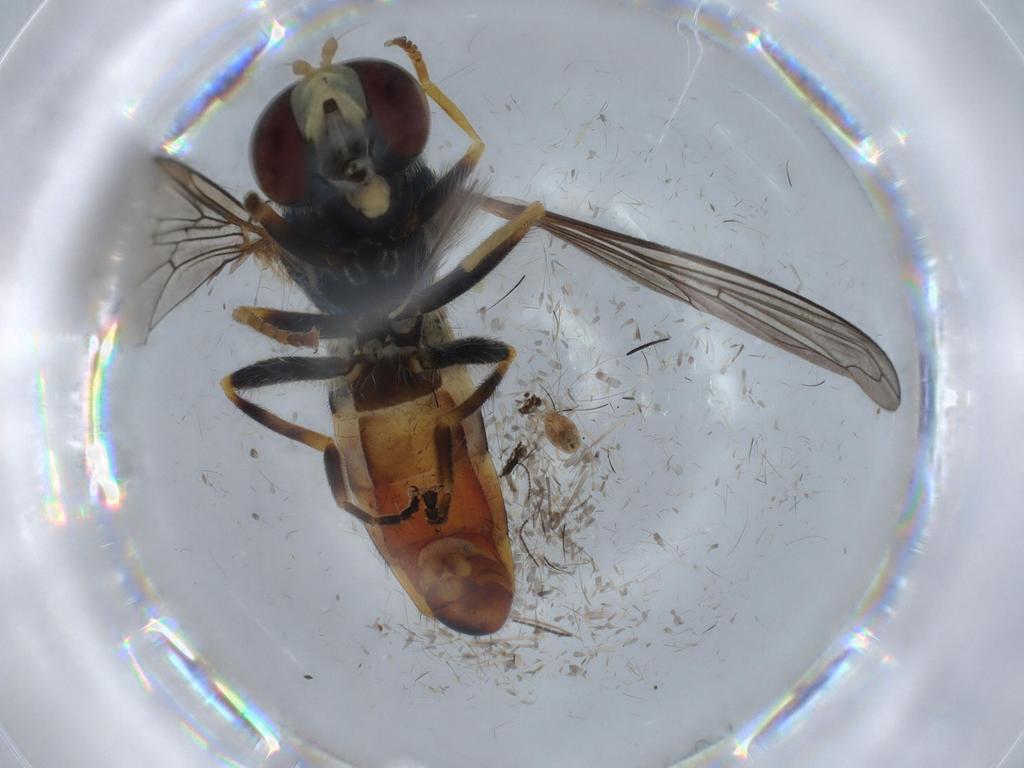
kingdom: Animalia
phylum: Arthropoda
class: Insecta
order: Diptera
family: Syrphidae
